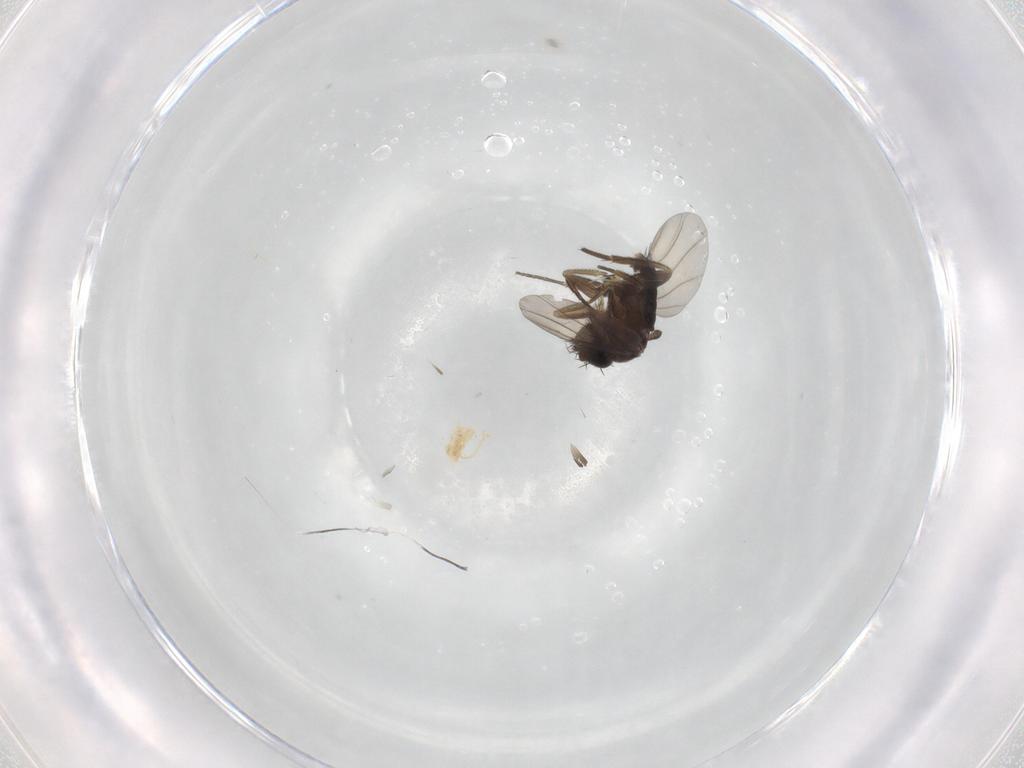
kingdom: Animalia
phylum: Arthropoda
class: Insecta
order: Diptera
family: Phoridae
